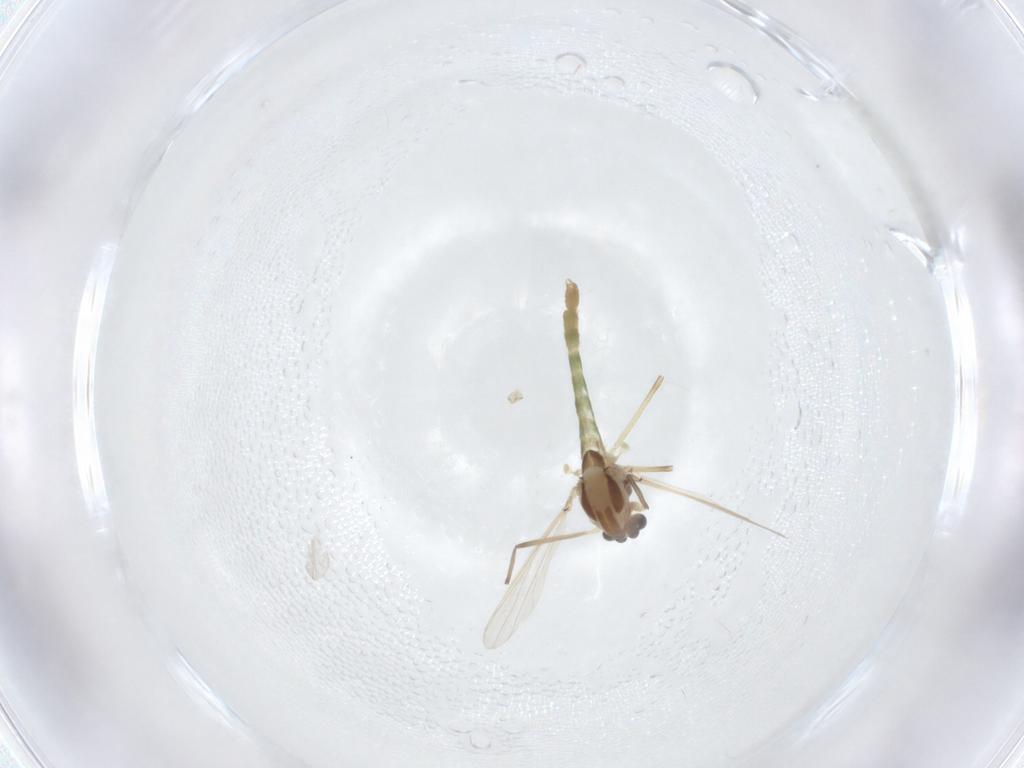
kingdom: Animalia
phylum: Arthropoda
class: Insecta
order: Diptera
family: Chironomidae
